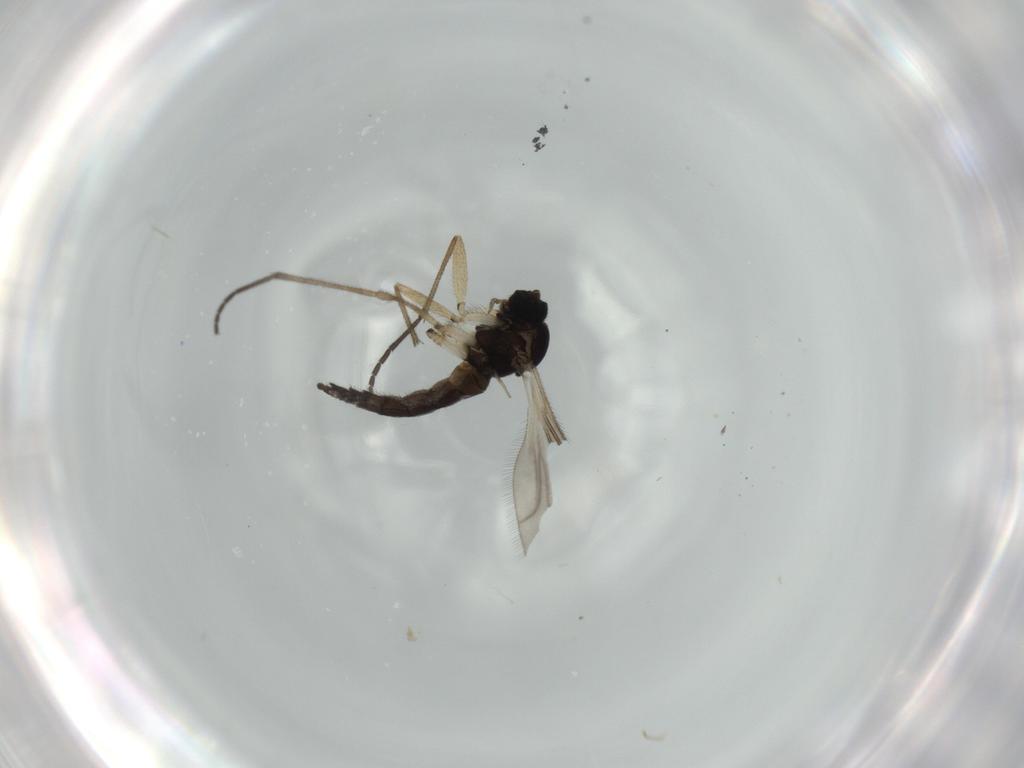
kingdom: Animalia
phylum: Arthropoda
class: Insecta
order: Diptera
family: Sciaridae
